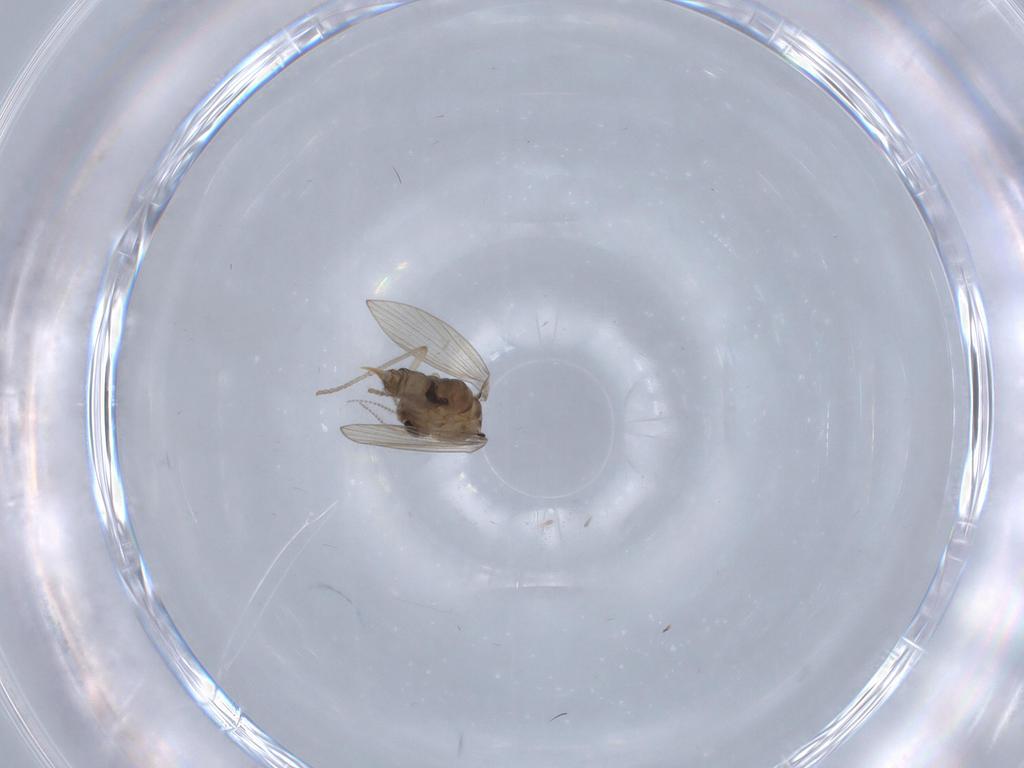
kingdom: Animalia
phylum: Arthropoda
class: Insecta
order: Diptera
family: Psychodidae
